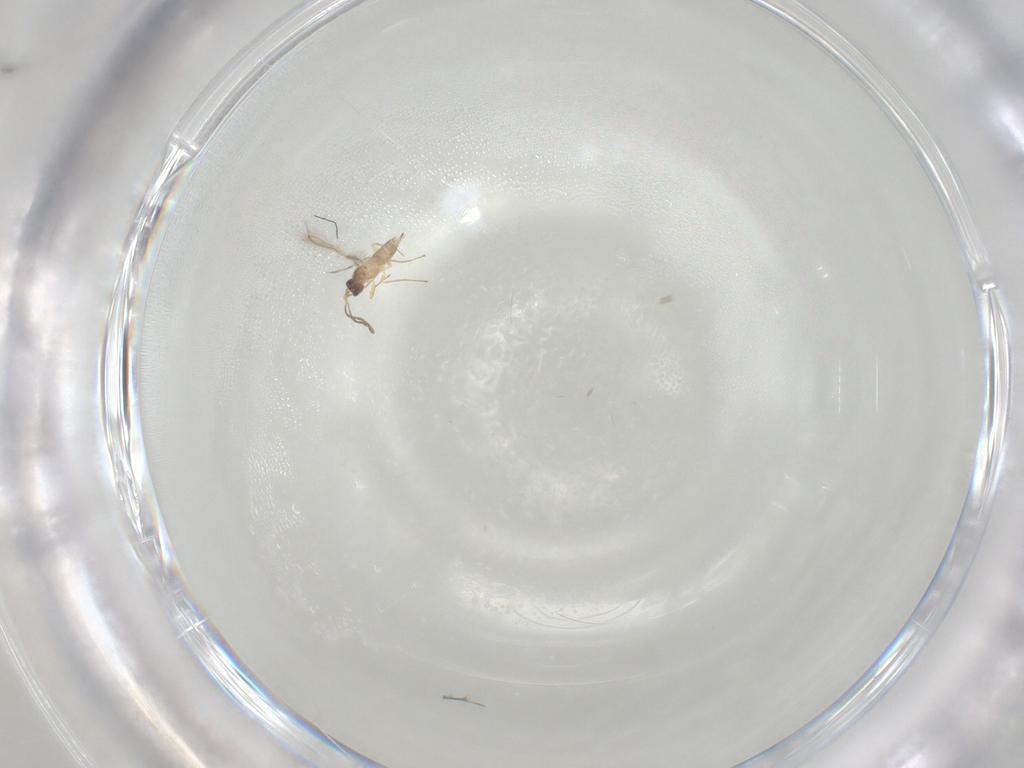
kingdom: Animalia
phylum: Arthropoda
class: Insecta
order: Hymenoptera
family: Mymaridae
